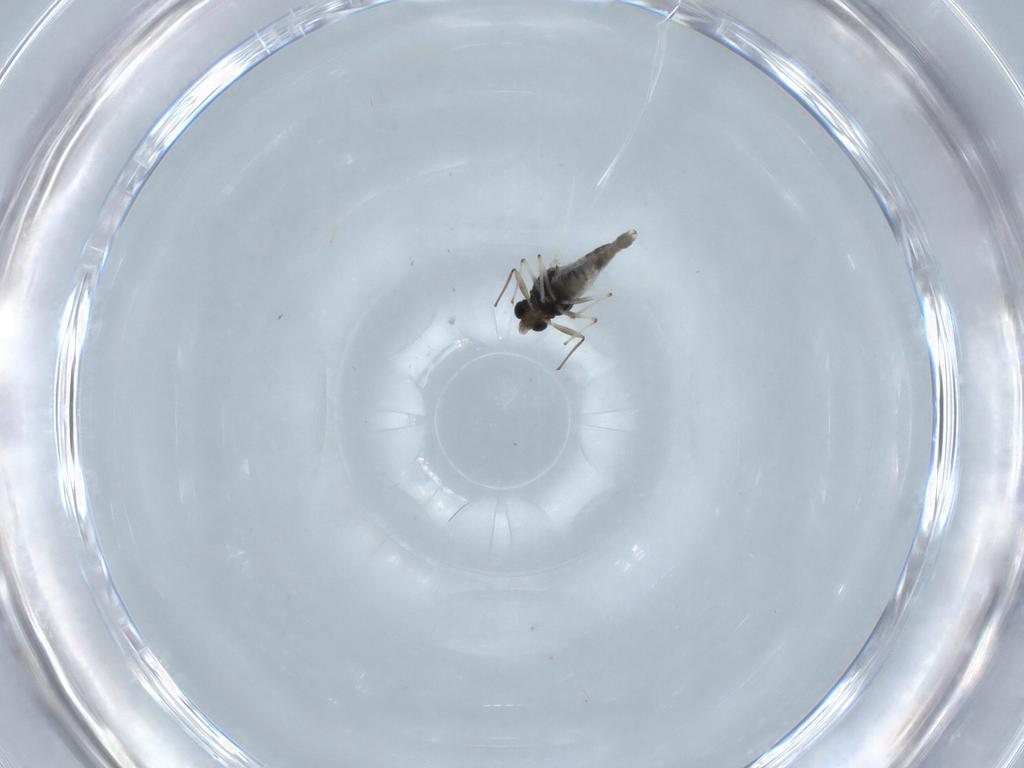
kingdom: Animalia
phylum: Arthropoda
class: Insecta
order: Diptera
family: Chironomidae
